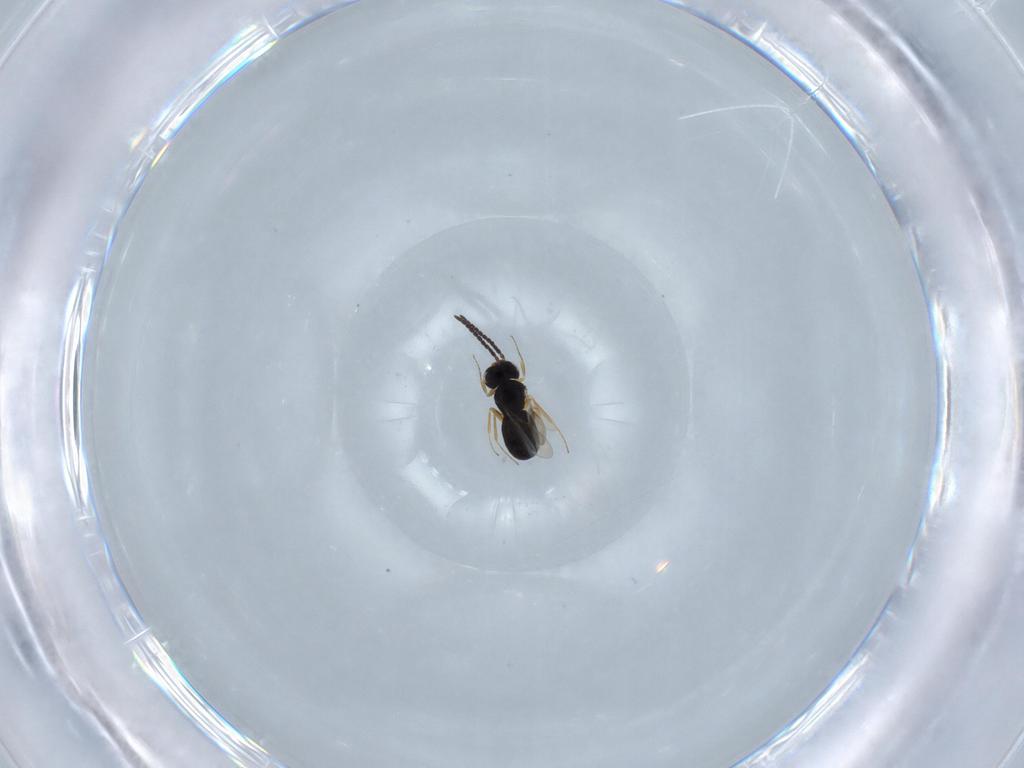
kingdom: Animalia
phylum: Arthropoda
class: Insecta
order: Hymenoptera
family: Scelionidae
